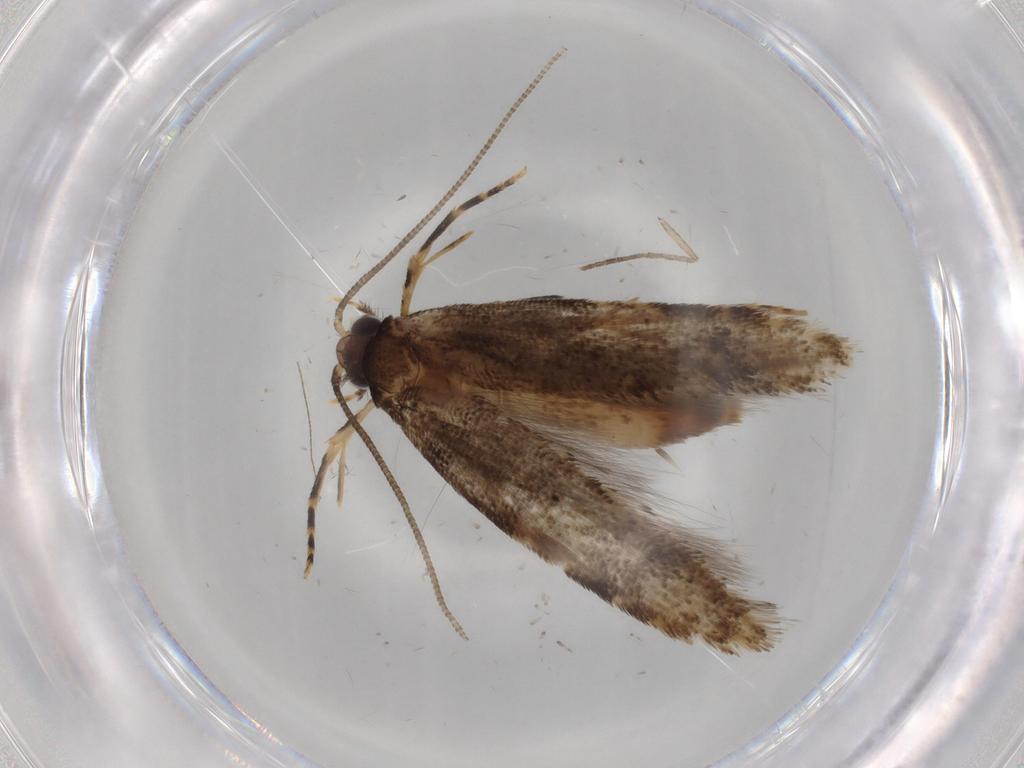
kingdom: Animalia
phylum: Arthropoda
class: Insecta
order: Lepidoptera
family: Tineidae
